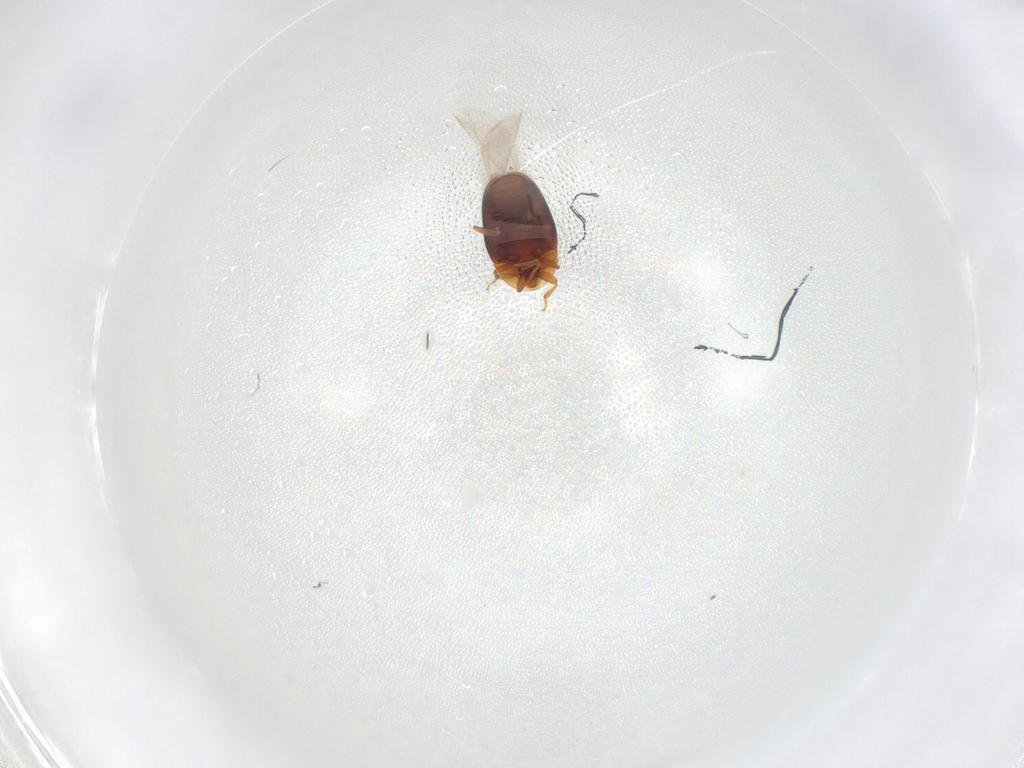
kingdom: Animalia
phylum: Arthropoda
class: Insecta
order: Coleoptera
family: Corylophidae
